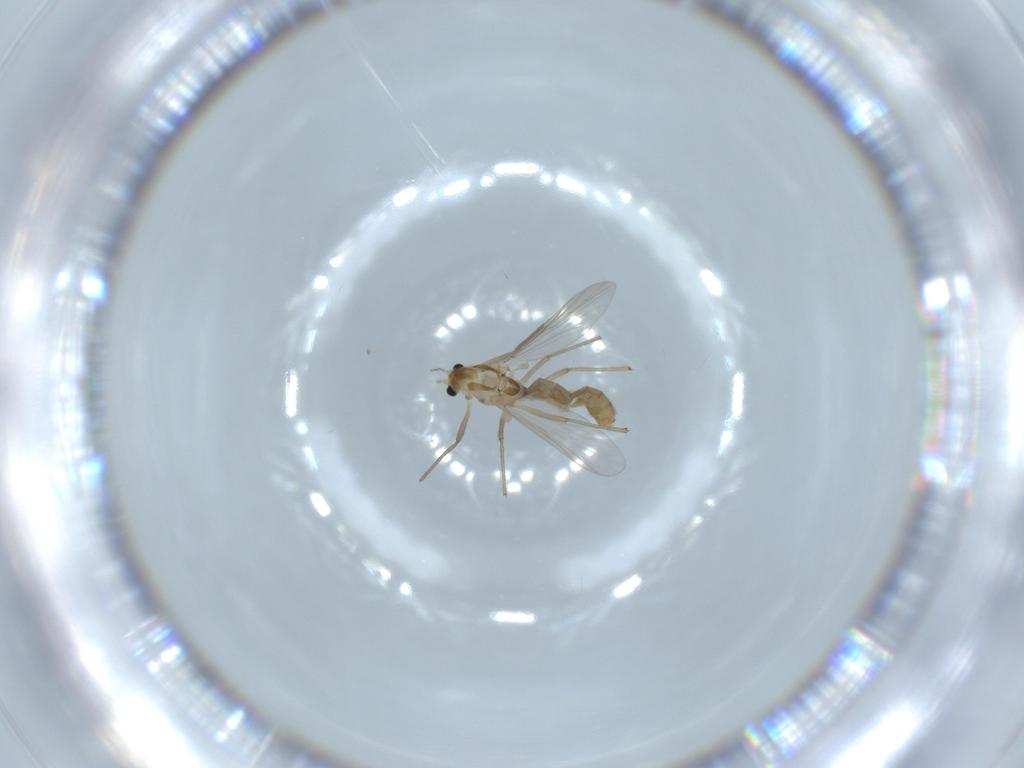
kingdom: Animalia
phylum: Arthropoda
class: Insecta
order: Diptera
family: Chironomidae
